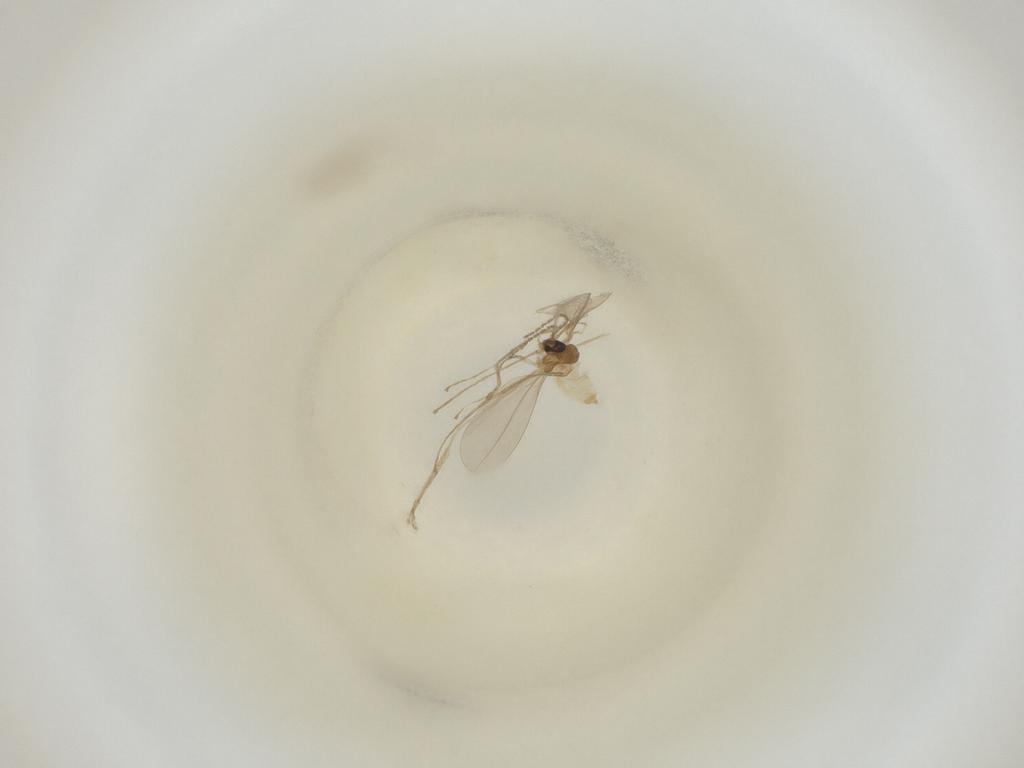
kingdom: Animalia
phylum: Arthropoda
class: Insecta
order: Diptera
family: Cecidomyiidae
